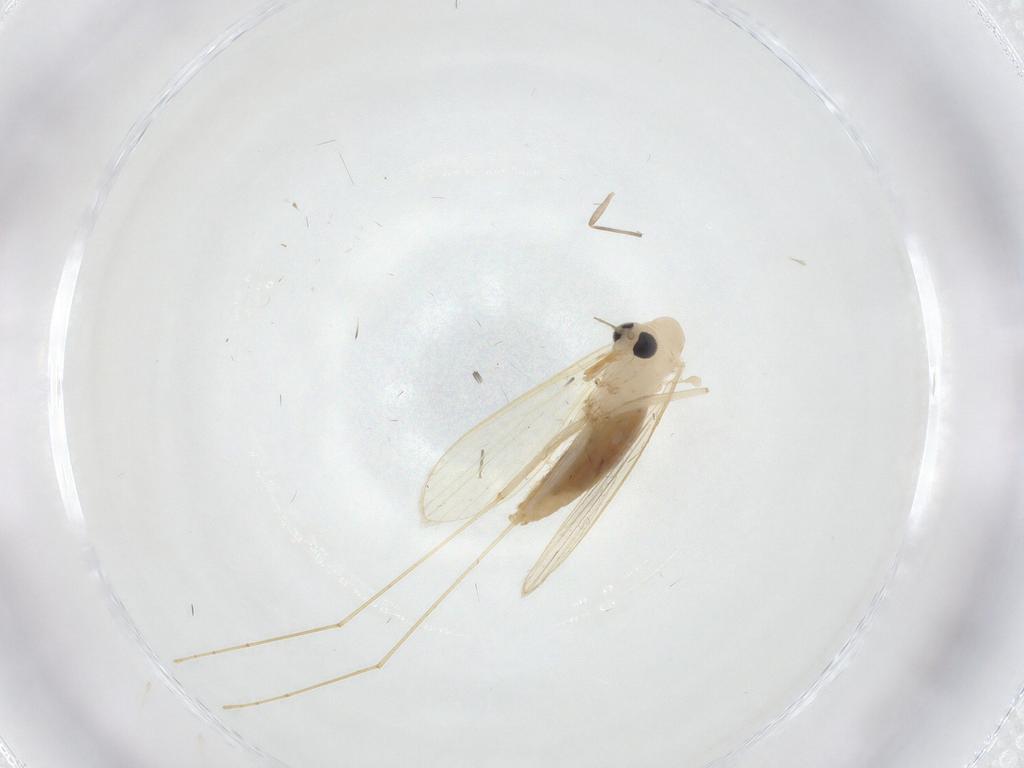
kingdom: Animalia
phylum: Arthropoda
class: Insecta
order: Diptera
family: Psychodidae
